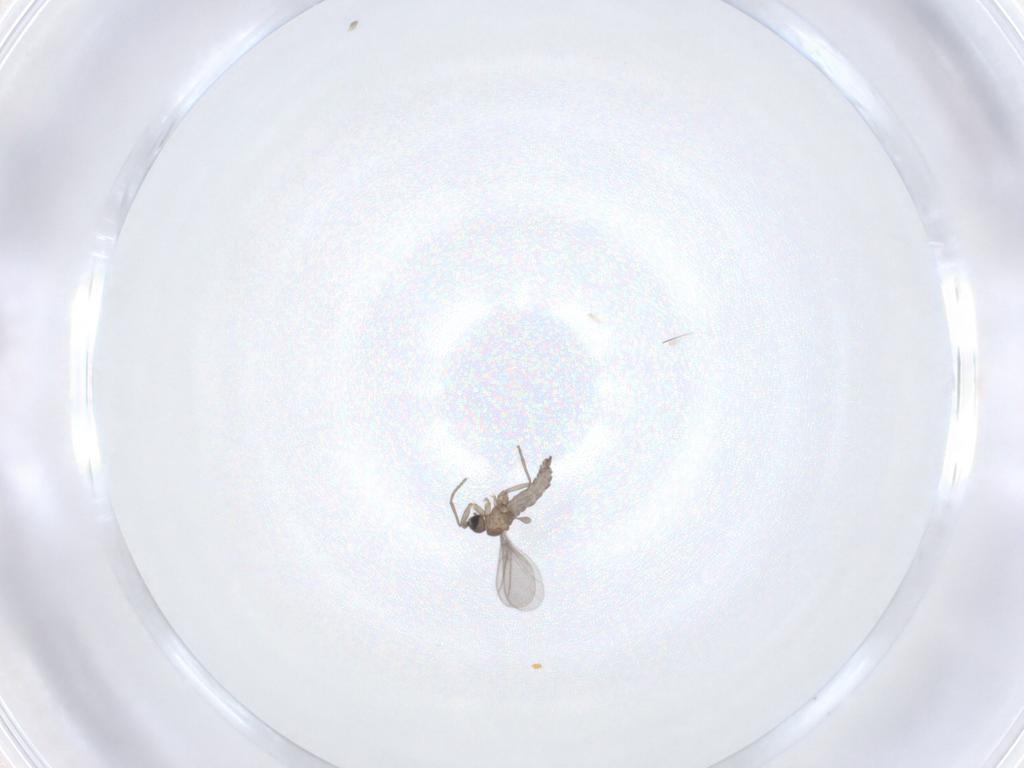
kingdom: Animalia
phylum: Arthropoda
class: Insecta
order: Diptera
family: Sciaridae
